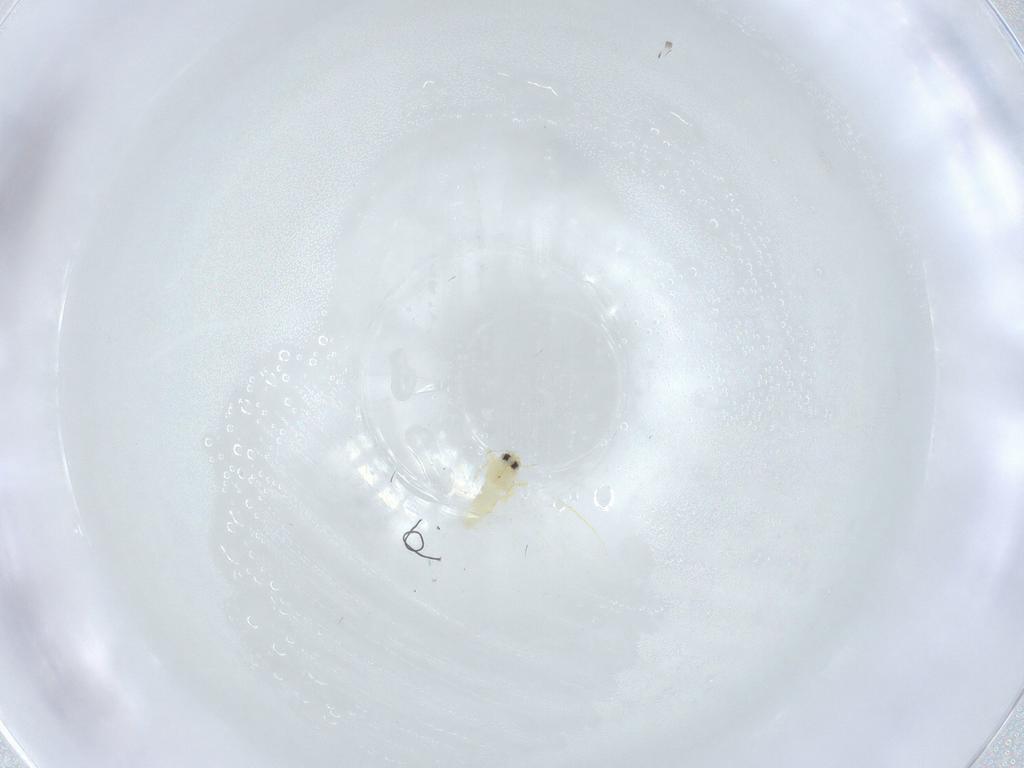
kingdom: Animalia
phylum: Arthropoda
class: Insecta
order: Hemiptera
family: Aleyrodidae
